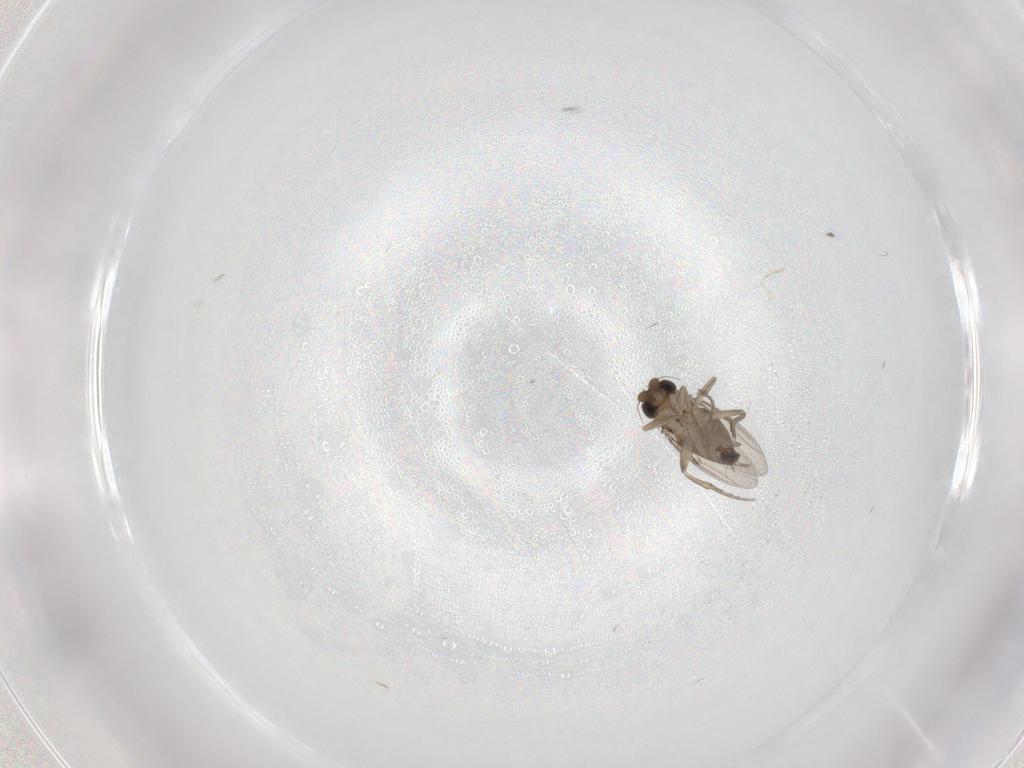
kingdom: Animalia
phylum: Arthropoda
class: Insecta
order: Diptera
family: Phoridae
